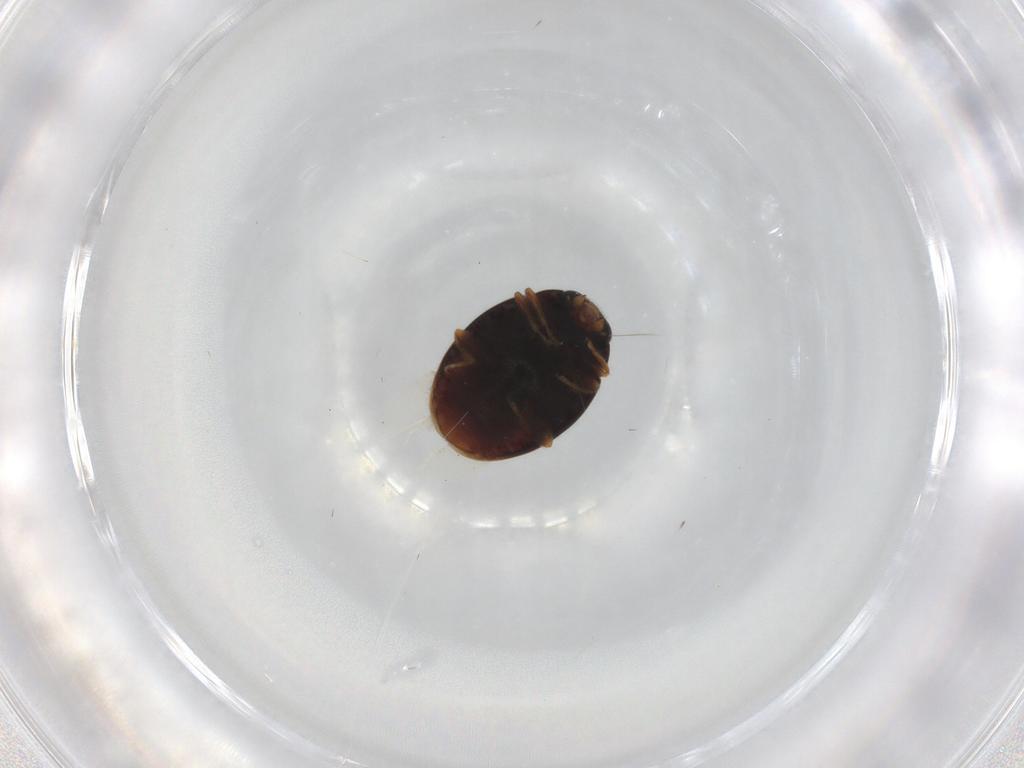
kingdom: Animalia
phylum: Arthropoda
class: Insecta
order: Coleoptera
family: Coccinellidae
